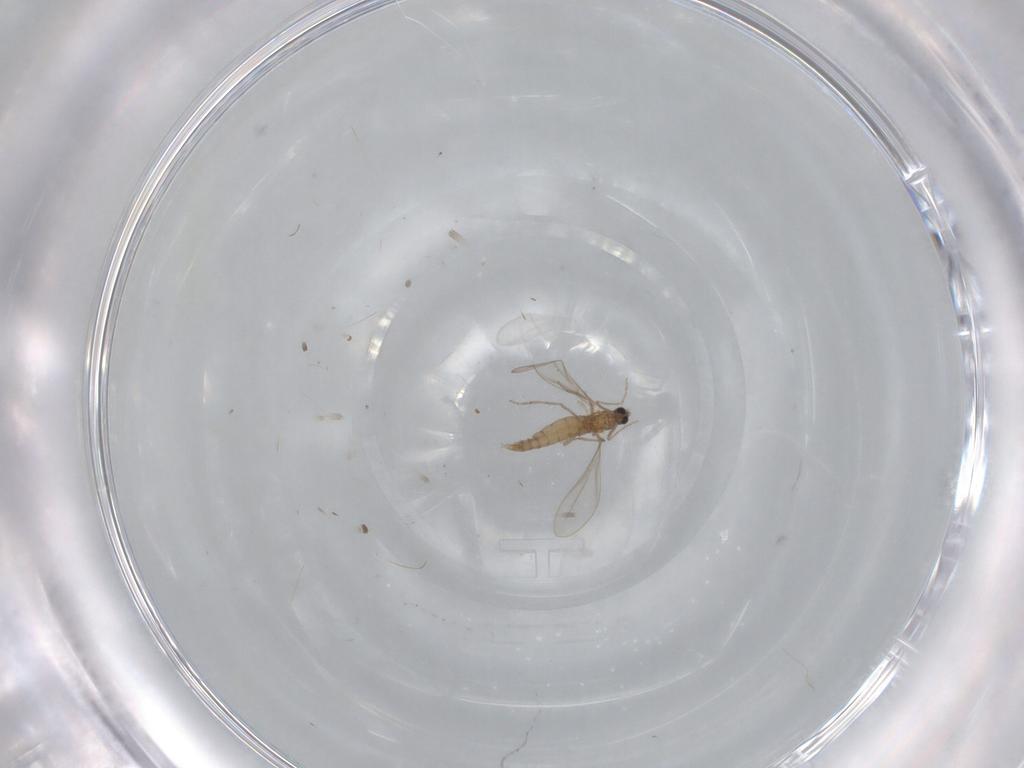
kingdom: Animalia
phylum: Arthropoda
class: Insecta
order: Diptera
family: Cecidomyiidae
